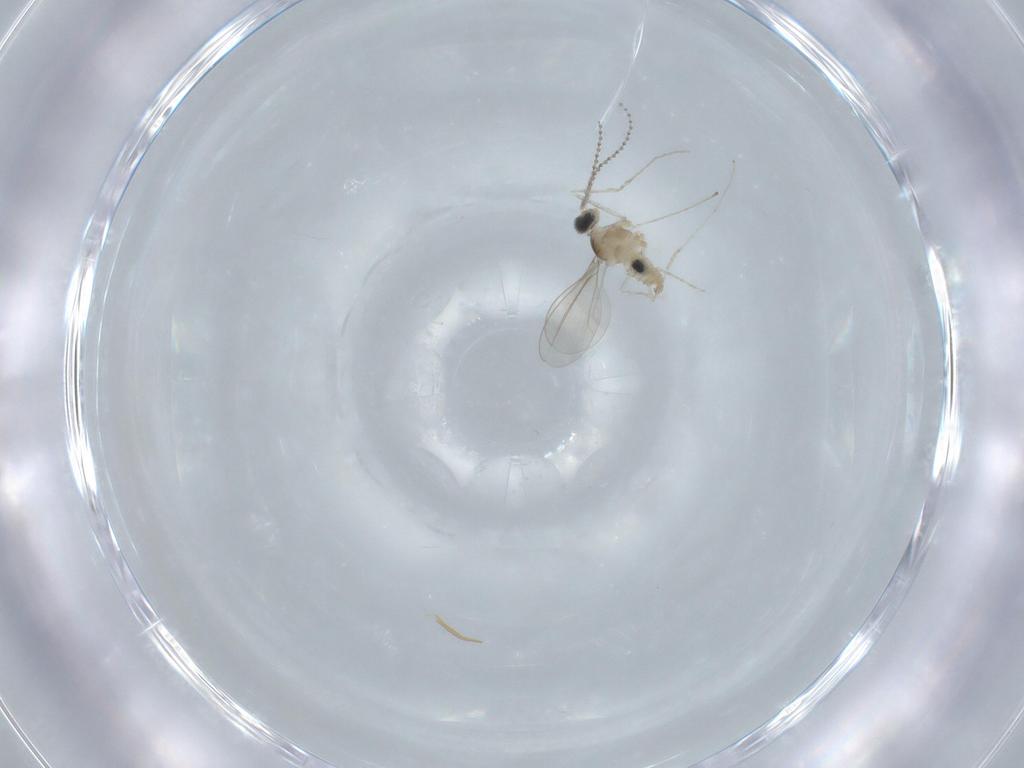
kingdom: Animalia
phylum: Arthropoda
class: Insecta
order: Diptera
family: Cecidomyiidae
